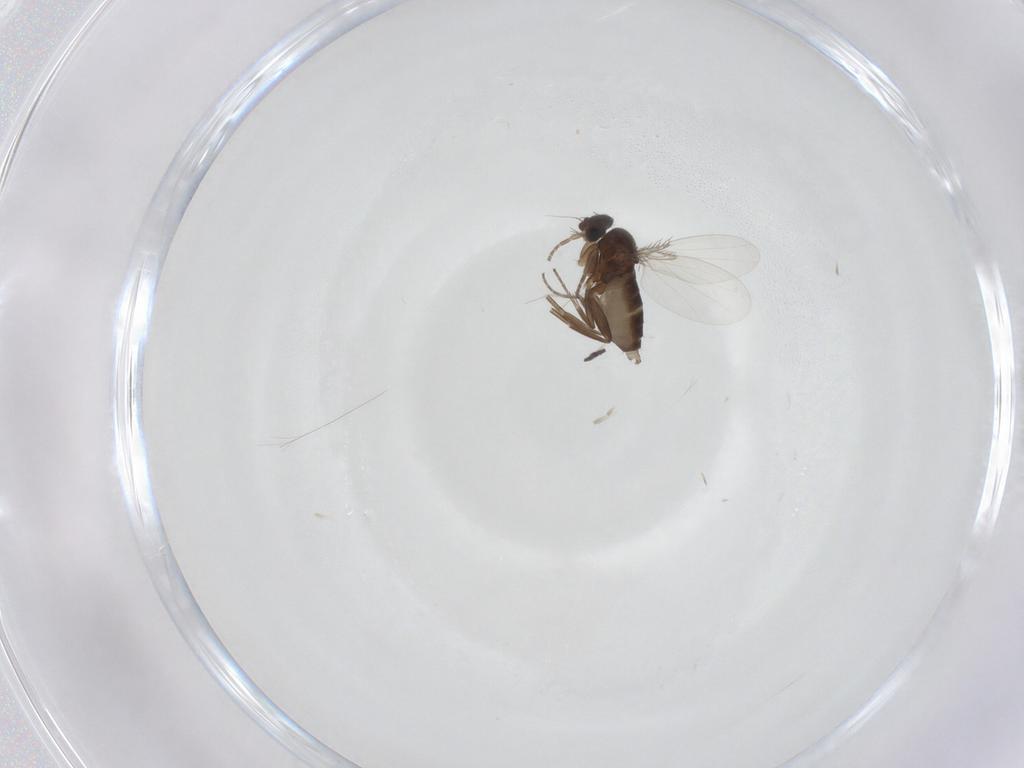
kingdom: Animalia
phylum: Arthropoda
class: Insecta
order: Diptera
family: Phoridae
